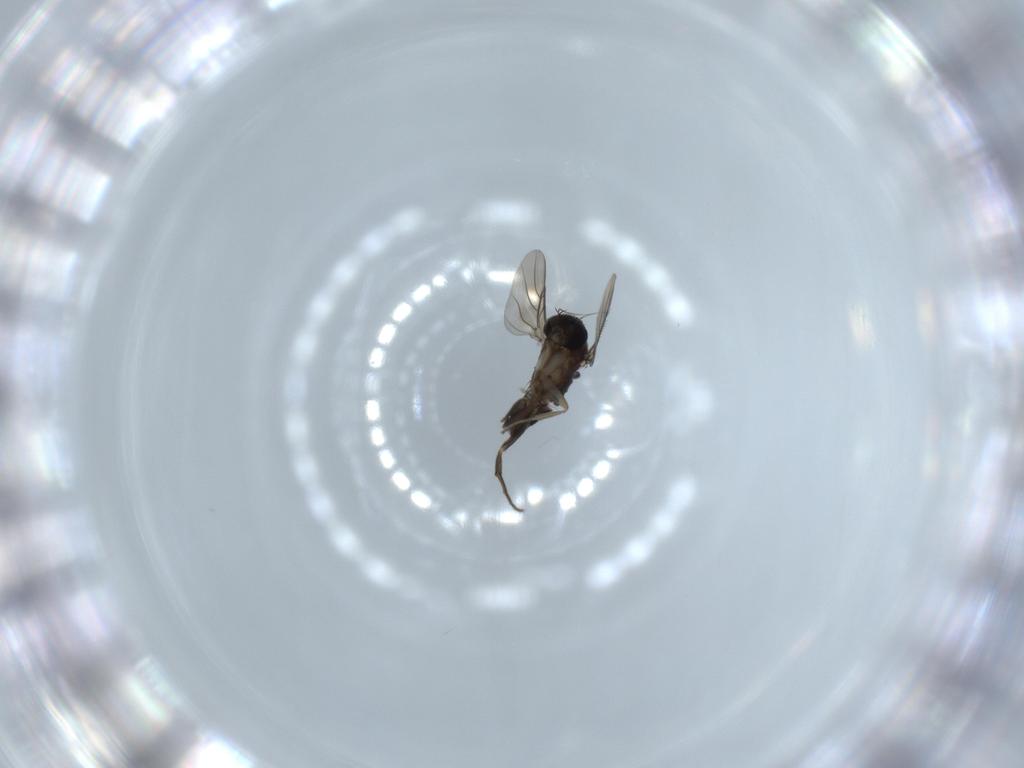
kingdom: Animalia
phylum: Arthropoda
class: Insecta
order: Diptera
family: Phoridae
